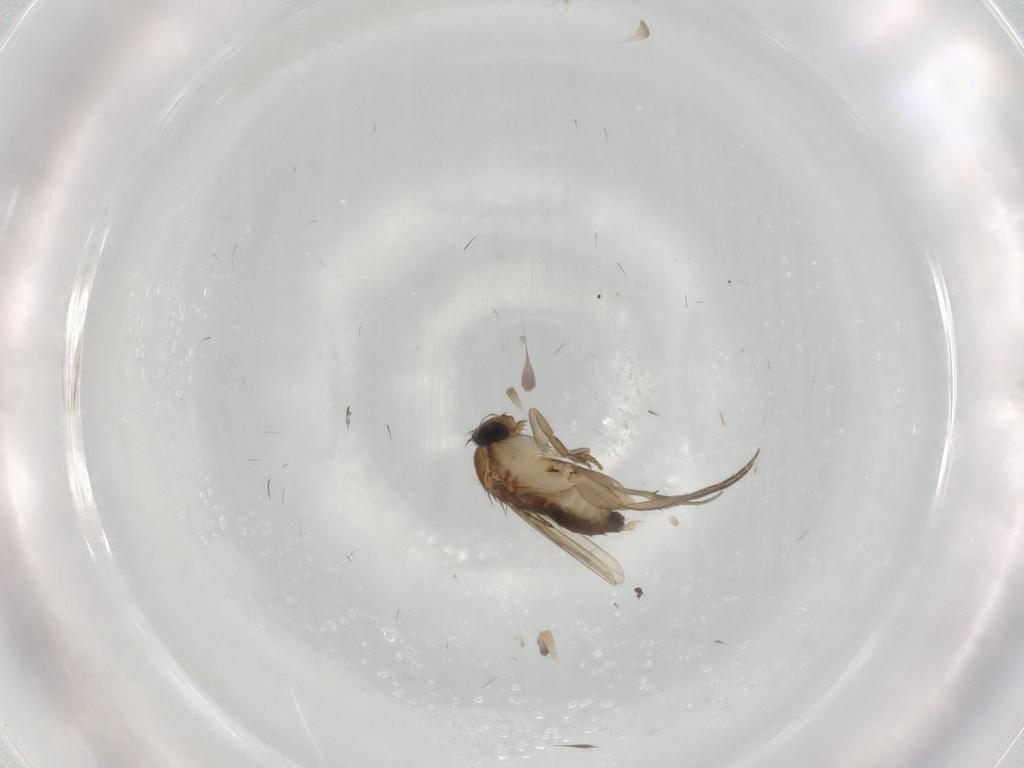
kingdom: Animalia
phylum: Arthropoda
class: Insecta
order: Diptera
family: Phoridae
